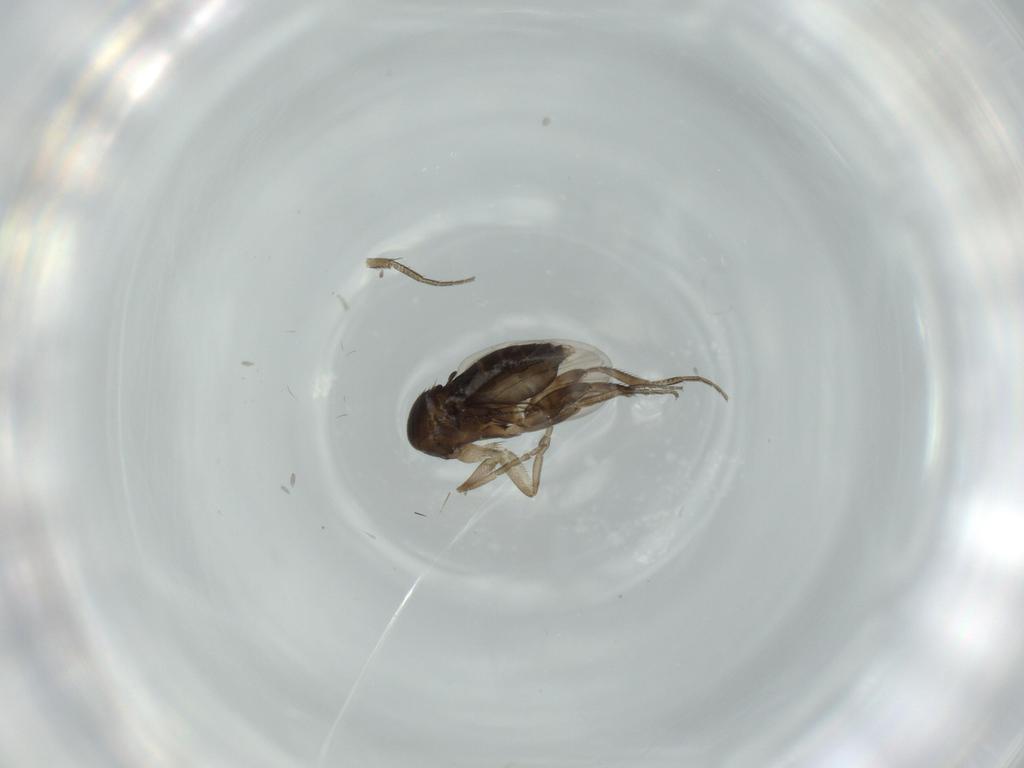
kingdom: Animalia
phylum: Arthropoda
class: Insecta
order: Diptera
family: Phoridae
